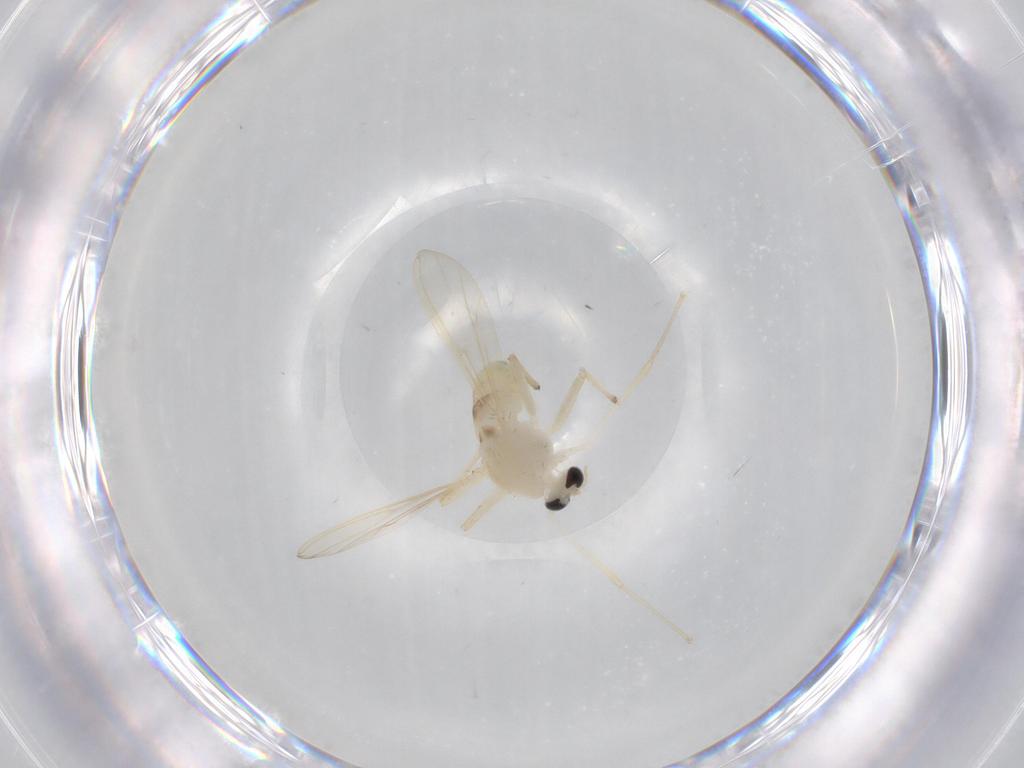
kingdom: Animalia
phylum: Arthropoda
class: Insecta
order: Diptera
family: Chironomidae
